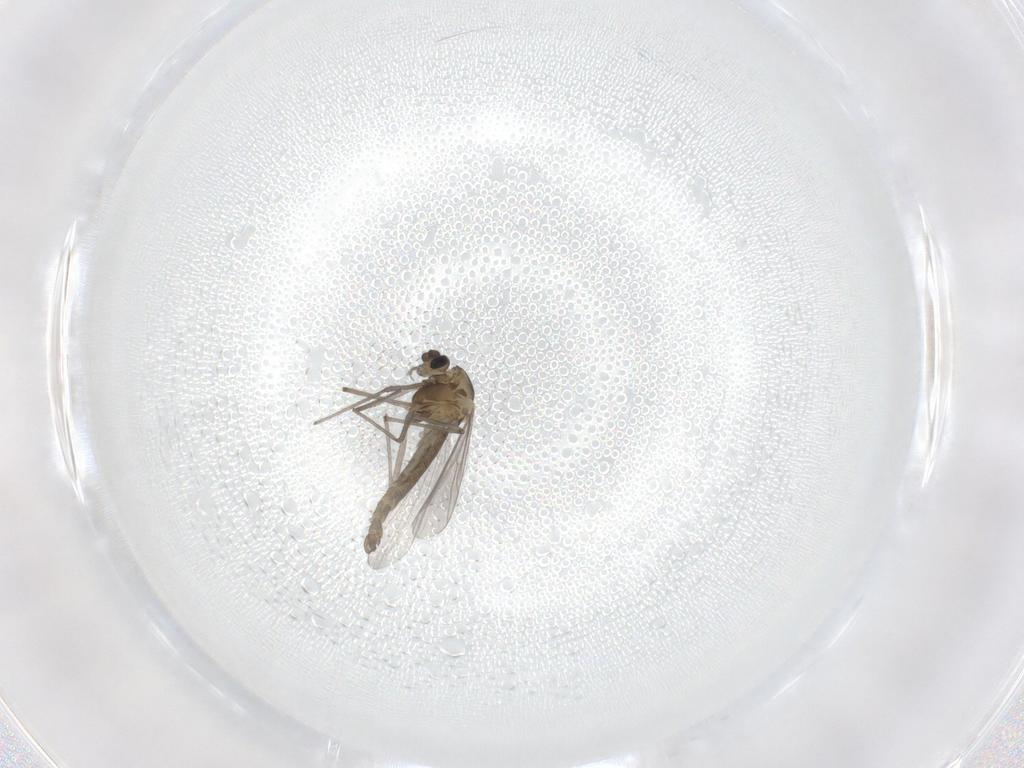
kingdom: Animalia
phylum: Arthropoda
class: Insecta
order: Diptera
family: Chironomidae
